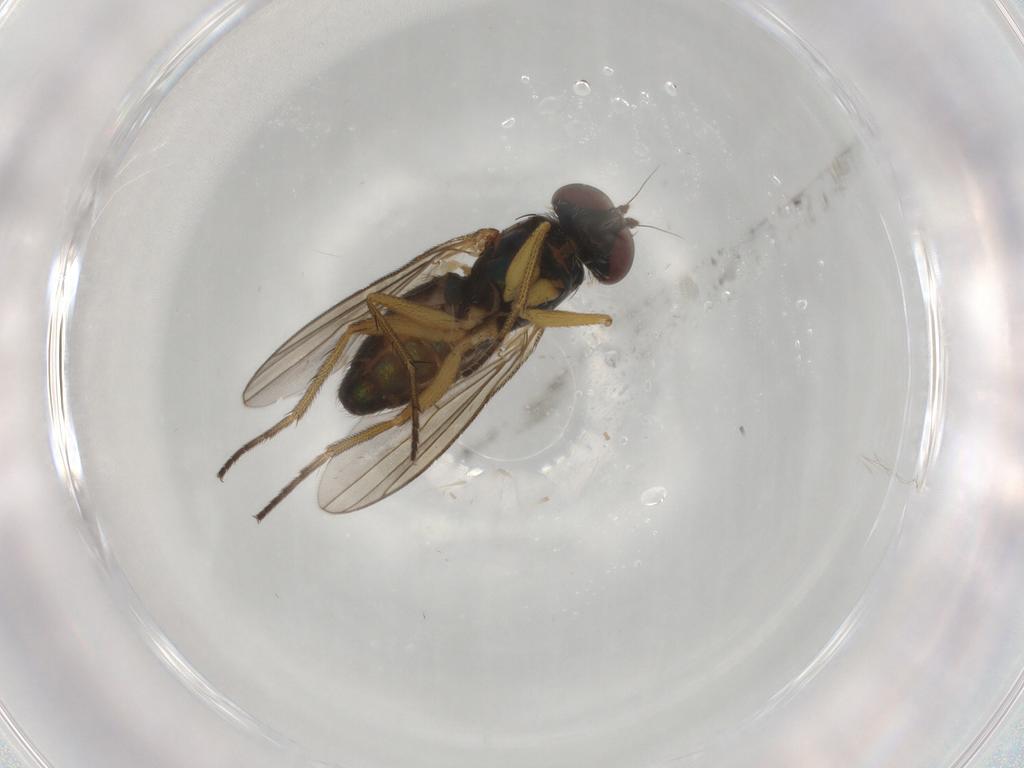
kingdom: Animalia
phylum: Arthropoda
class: Insecta
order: Diptera
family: Dolichopodidae
